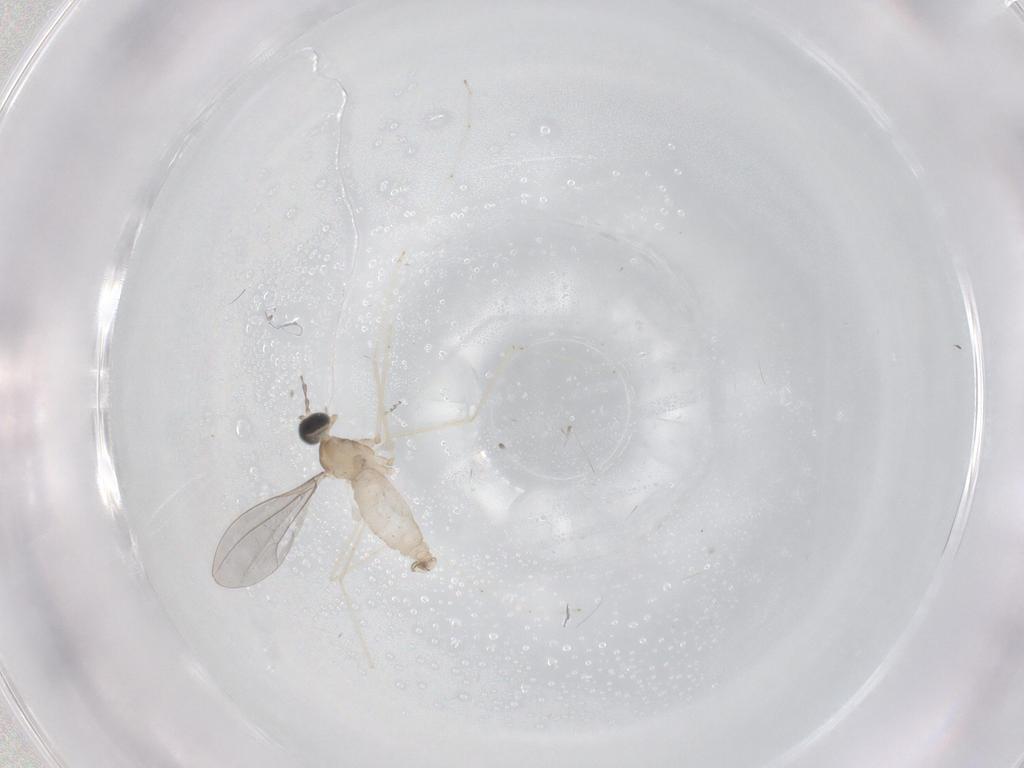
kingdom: Animalia
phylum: Arthropoda
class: Insecta
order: Diptera
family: Cecidomyiidae
